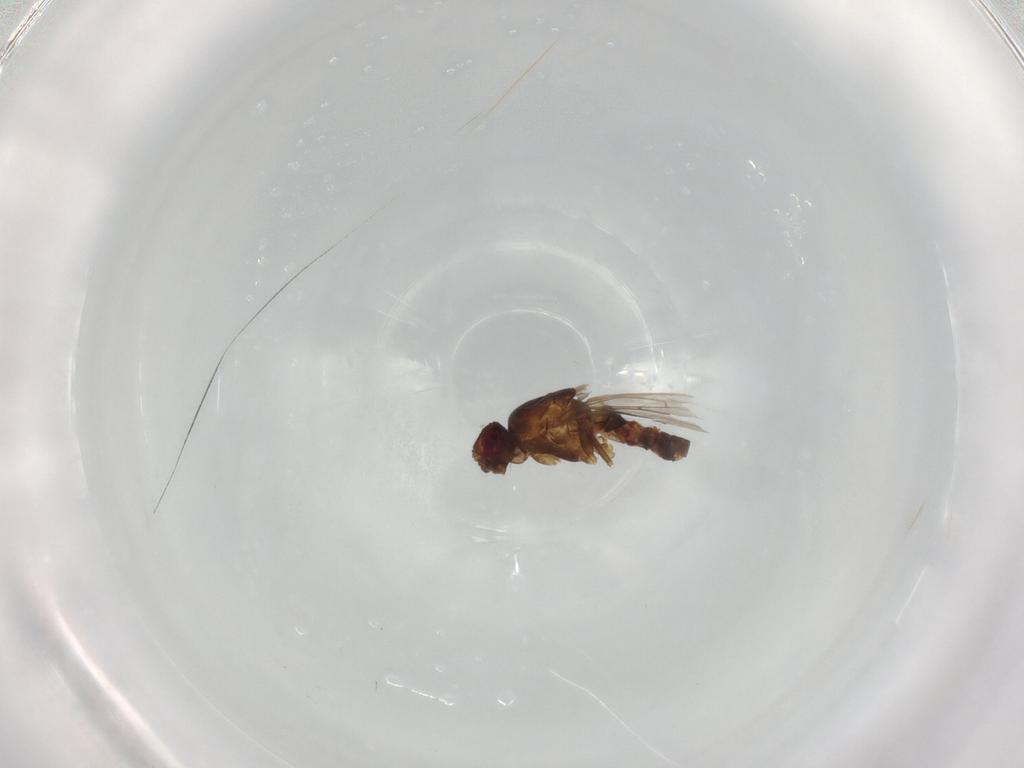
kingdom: Animalia
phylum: Arthropoda
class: Insecta
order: Diptera
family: Sphaeroceridae
